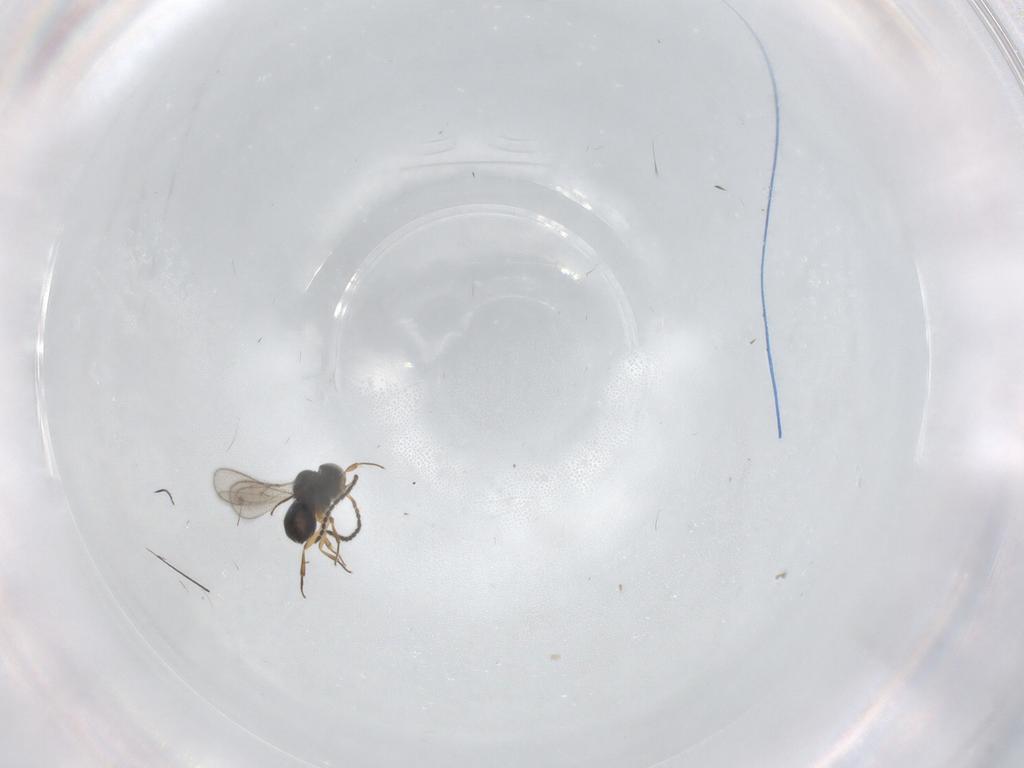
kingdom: Animalia
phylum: Arthropoda
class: Insecta
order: Hymenoptera
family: Scelionidae
